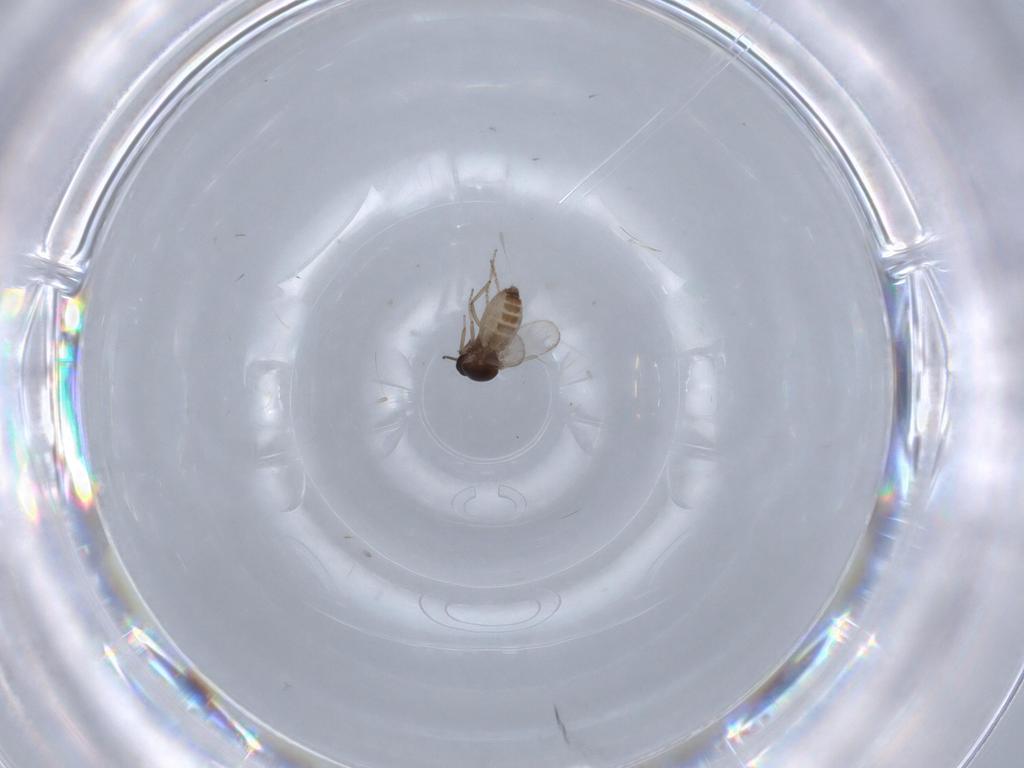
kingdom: Animalia
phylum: Arthropoda
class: Insecta
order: Diptera
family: Ceratopogonidae
